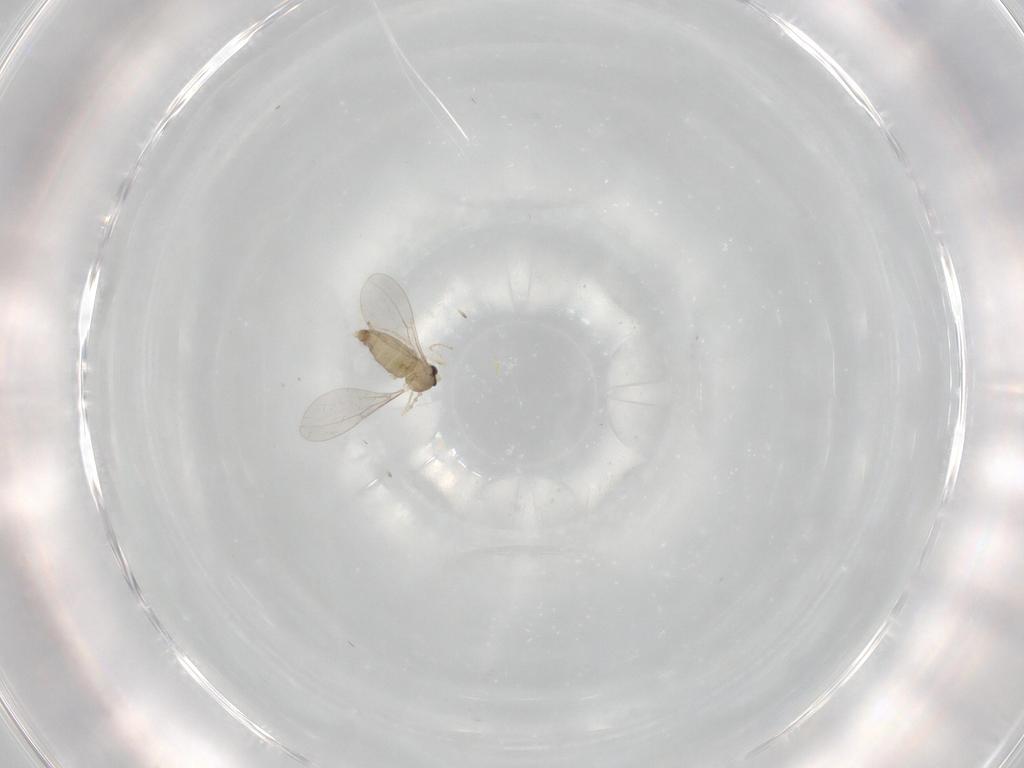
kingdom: Animalia
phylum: Arthropoda
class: Insecta
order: Diptera
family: Cecidomyiidae
